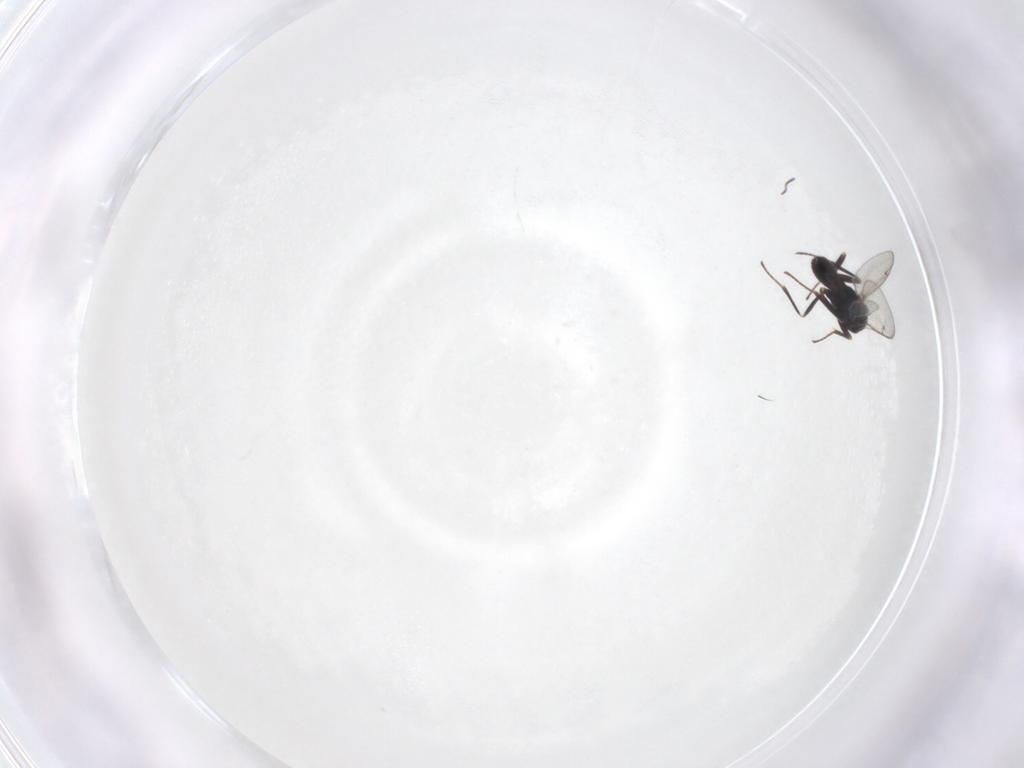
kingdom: Animalia
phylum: Arthropoda
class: Insecta
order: Hymenoptera
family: Eupelmidae
